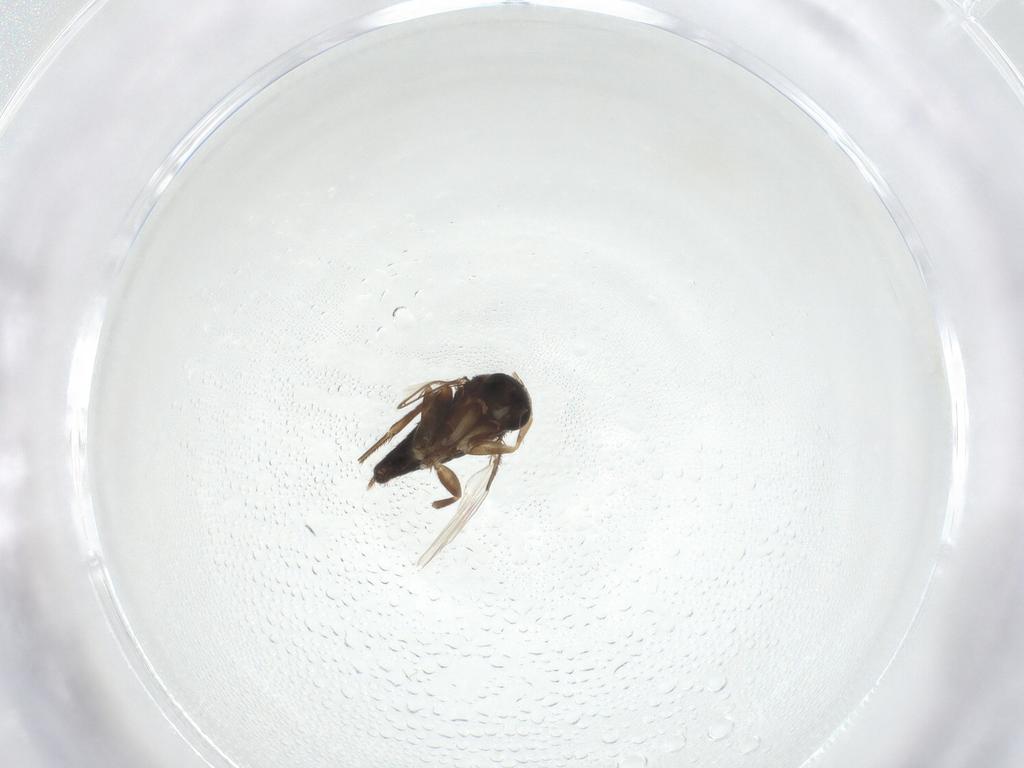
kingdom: Animalia
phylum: Arthropoda
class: Insecta
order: Diptera
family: Phoridae
